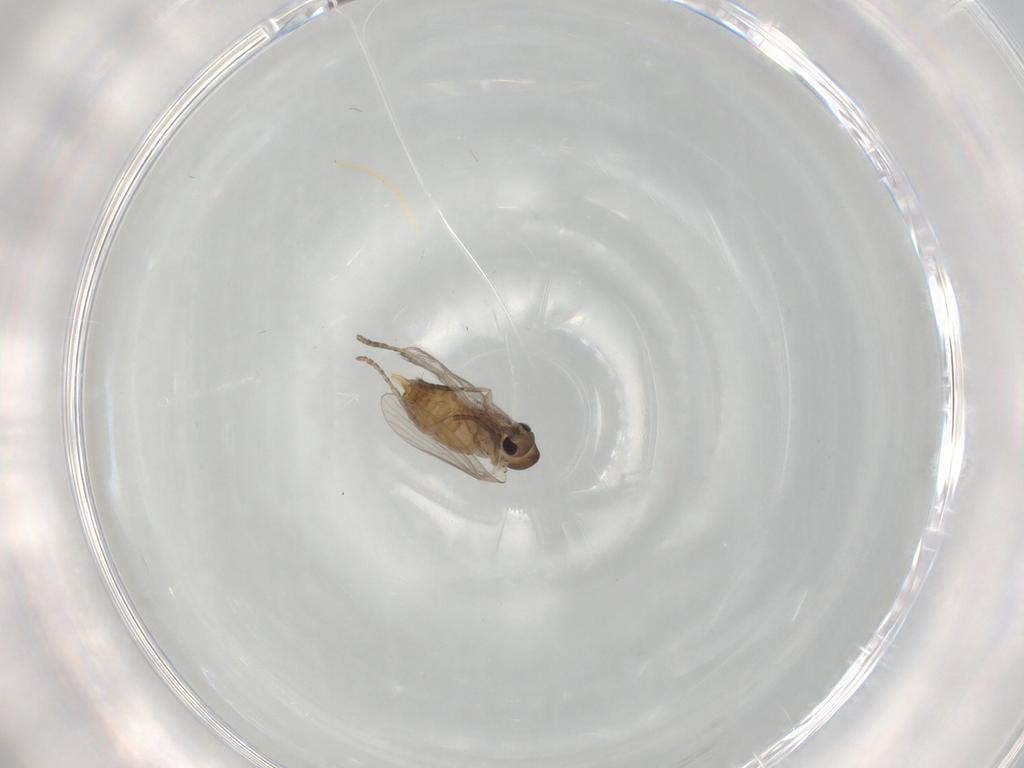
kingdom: Animalia
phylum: Arthropoda
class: Insecta
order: Diptera
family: Chironomidae
